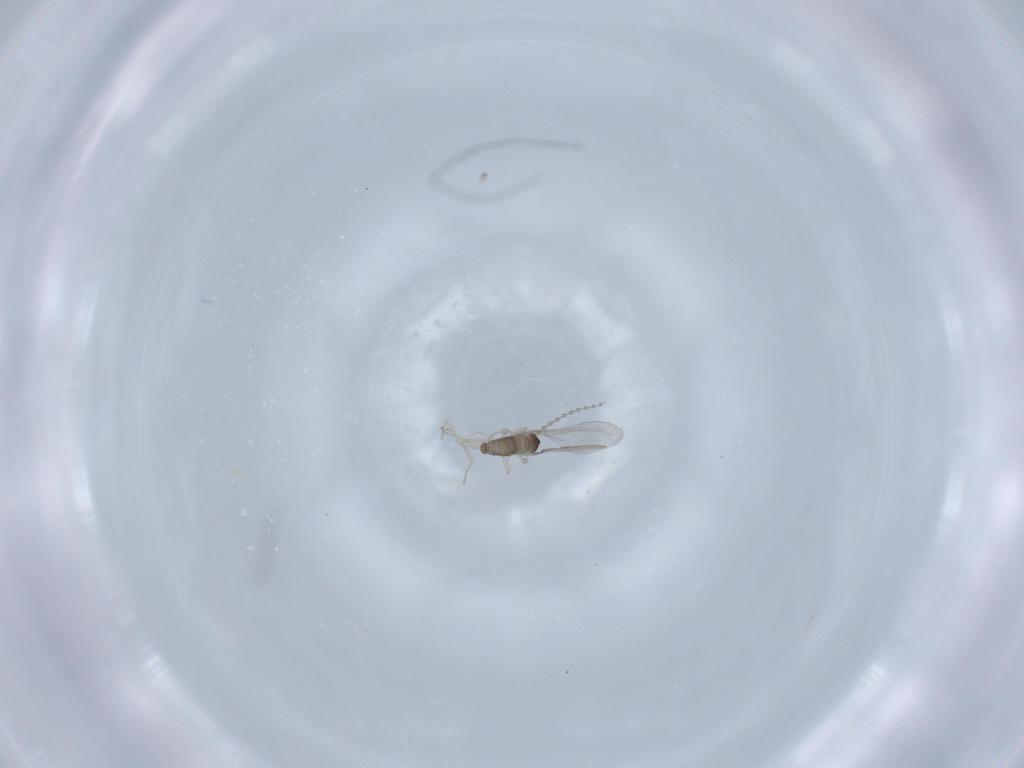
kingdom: Animalia
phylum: Arthropoda
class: Insecta
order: Diptera
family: Cecidomyiidae
